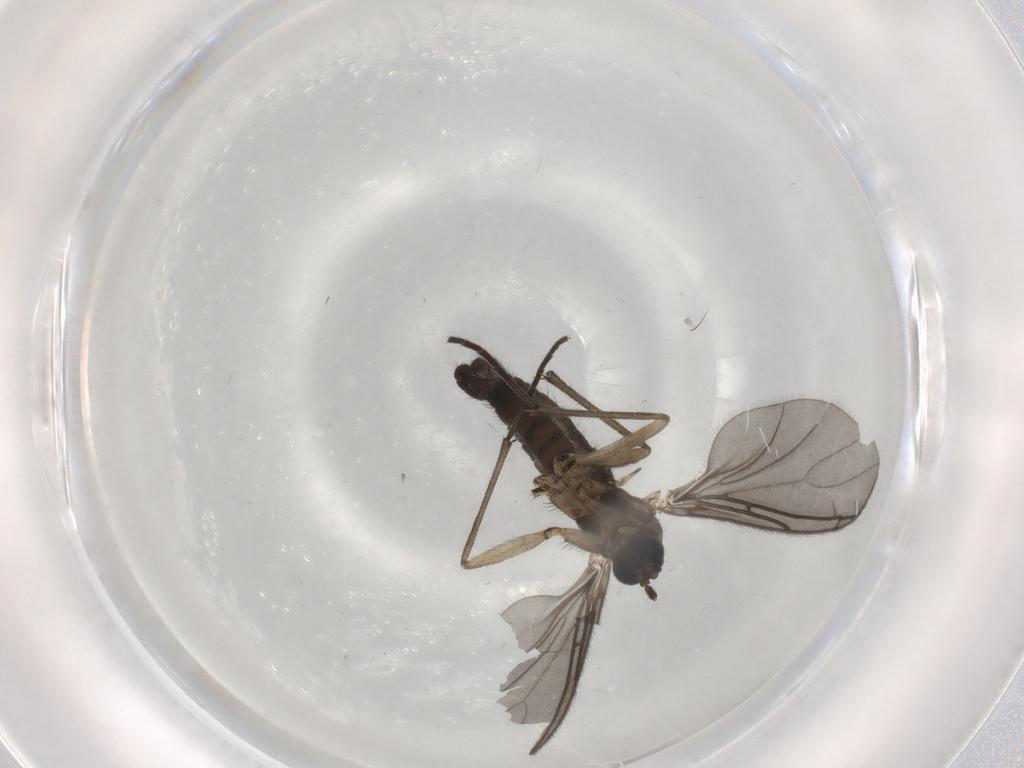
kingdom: Animalia
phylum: Arthropoda
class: Insecta
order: Diptera
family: Sciaridae
